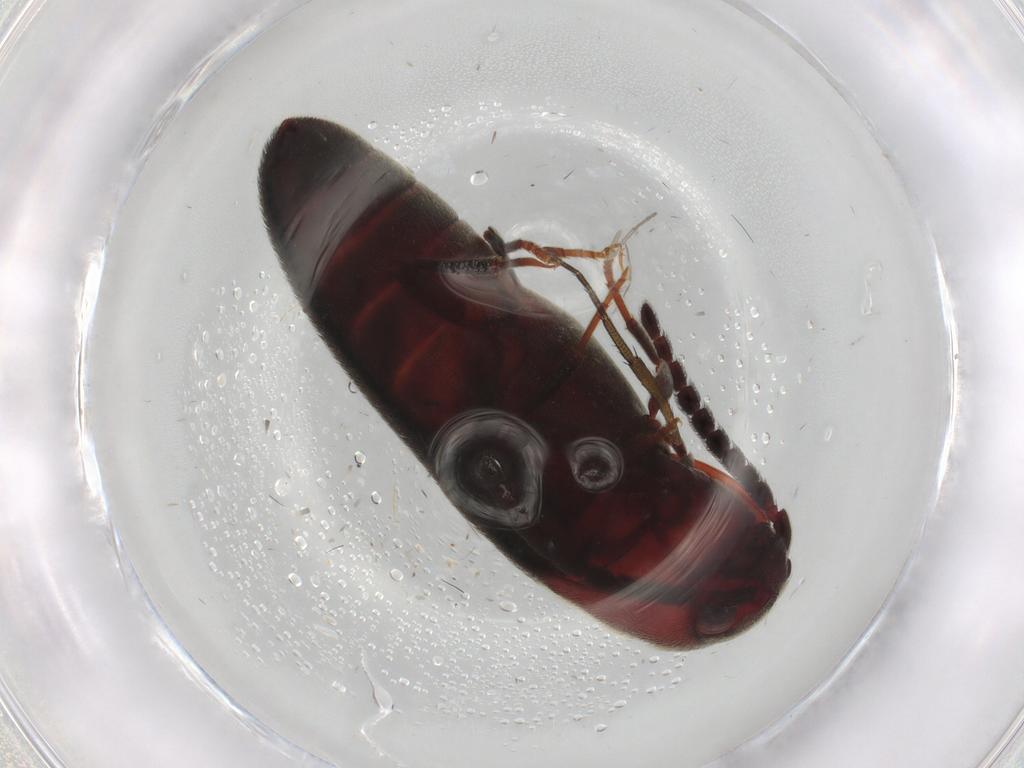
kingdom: Animalia
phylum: Arthropoda
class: Insecta
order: Coleoptera
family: Eucnemidae
